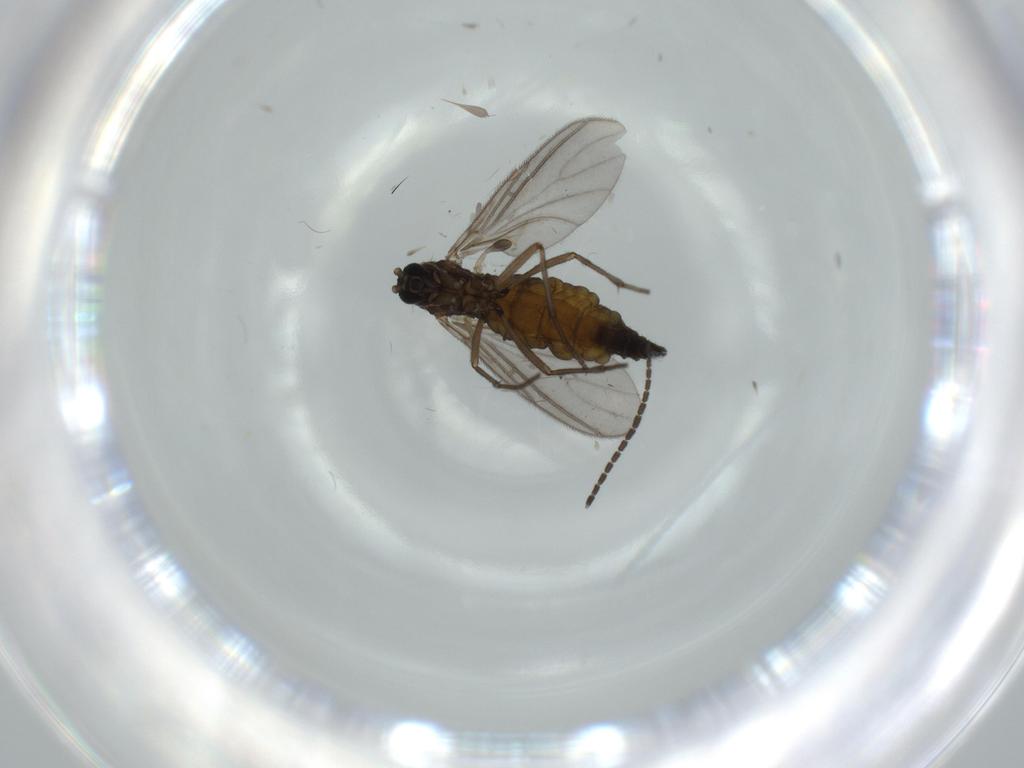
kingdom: Animalia
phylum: Arthropoda
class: Insecta
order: Diptera
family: Sciaridae
